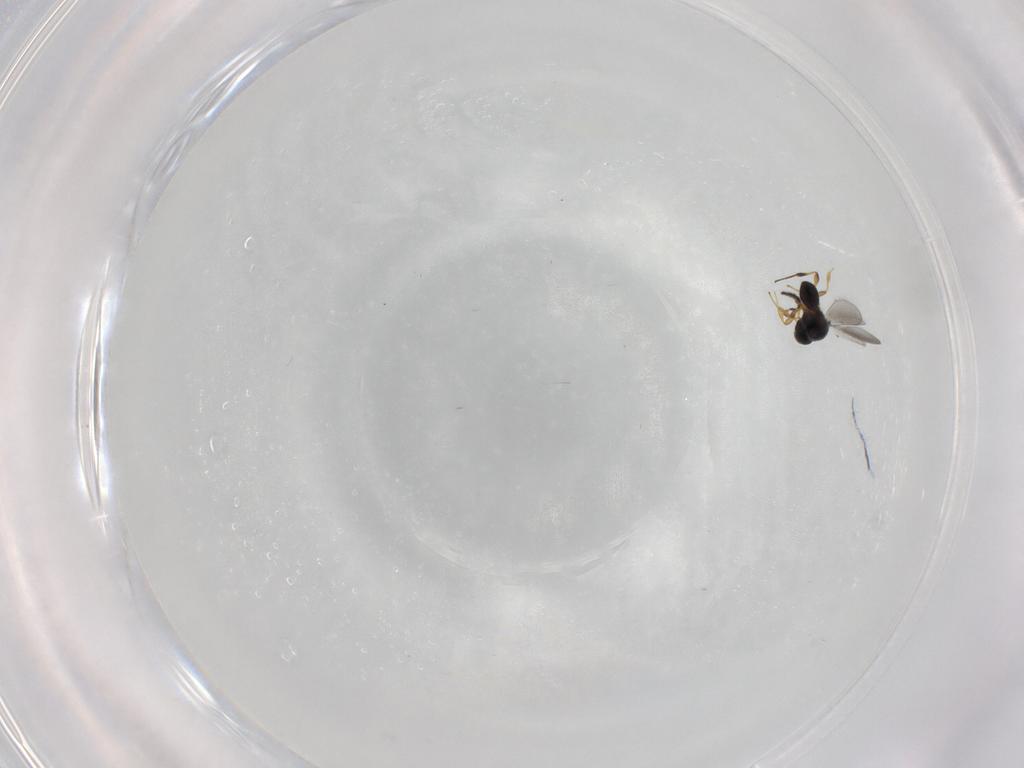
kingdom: Animalia
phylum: Arthropoda
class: Insecta
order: Hymenoptera
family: Platygastridae
